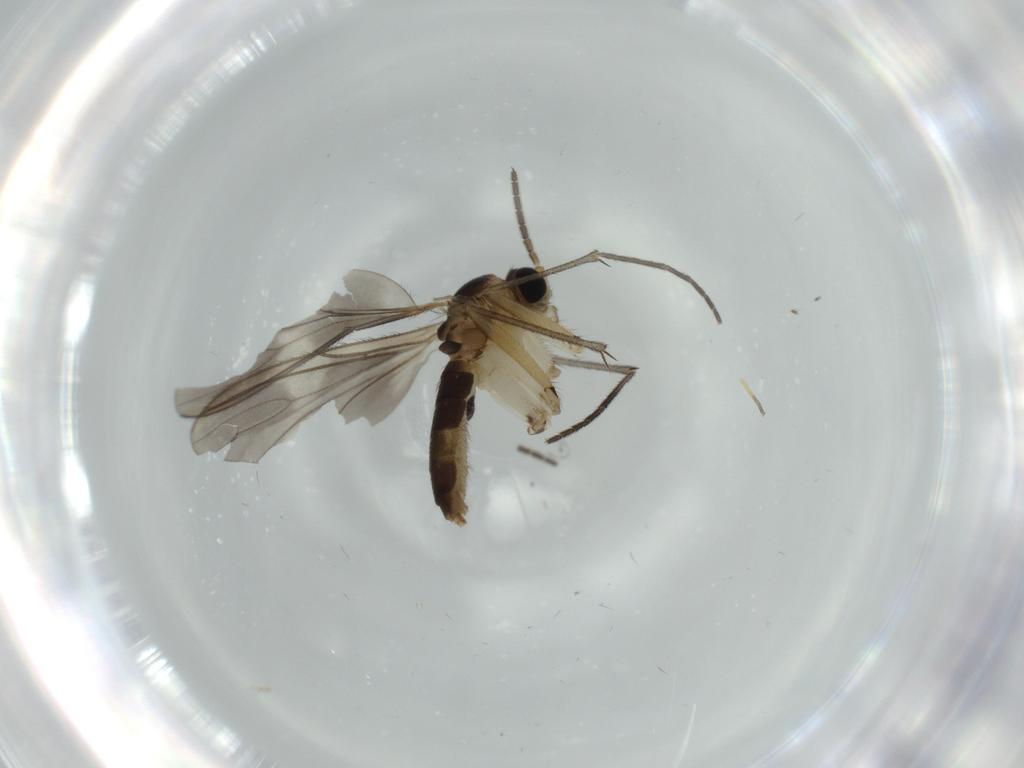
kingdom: Animalia
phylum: Arthropoda
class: Insecta
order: Diptera
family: Sciaridae
